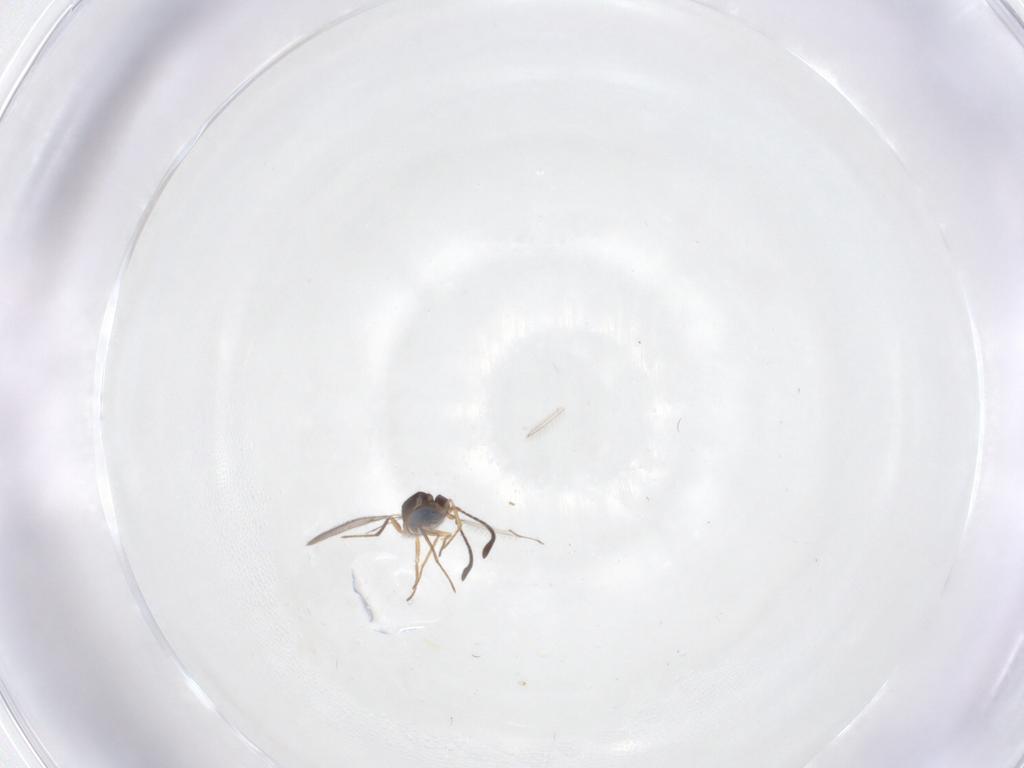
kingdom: Animalia
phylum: Arthropoda
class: Insecta
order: Hymenoptera
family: Mymaridae
